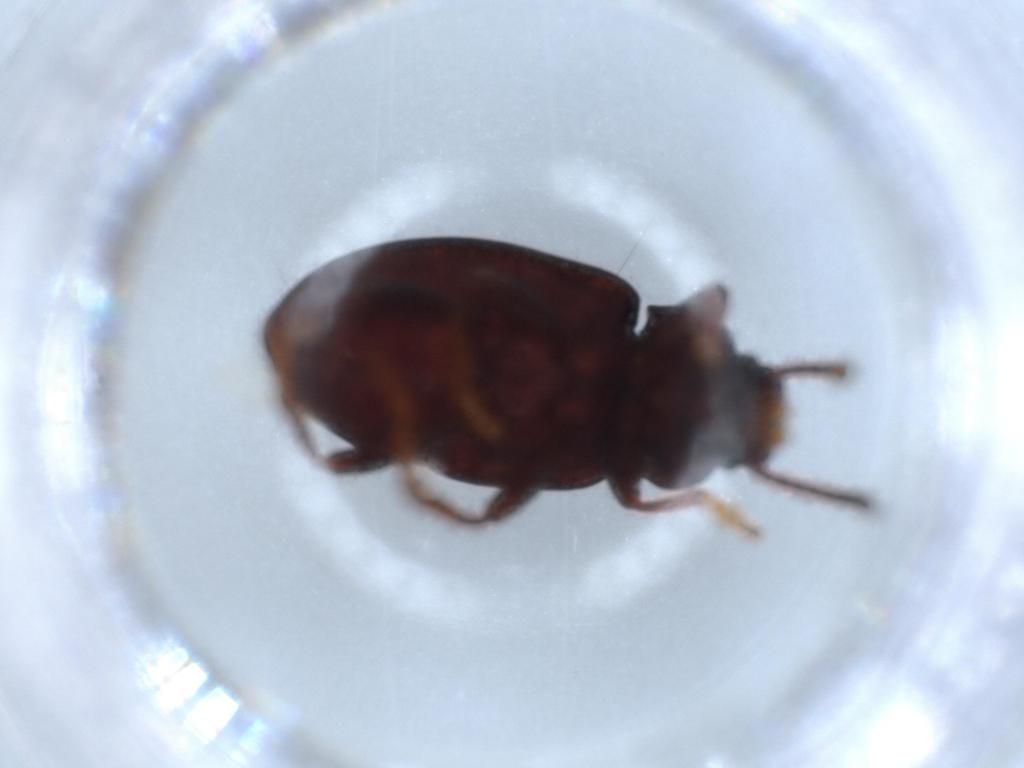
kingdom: Animalia
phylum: Arthropoda
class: Insecta
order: Coleoptera
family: Tenebrionidae
